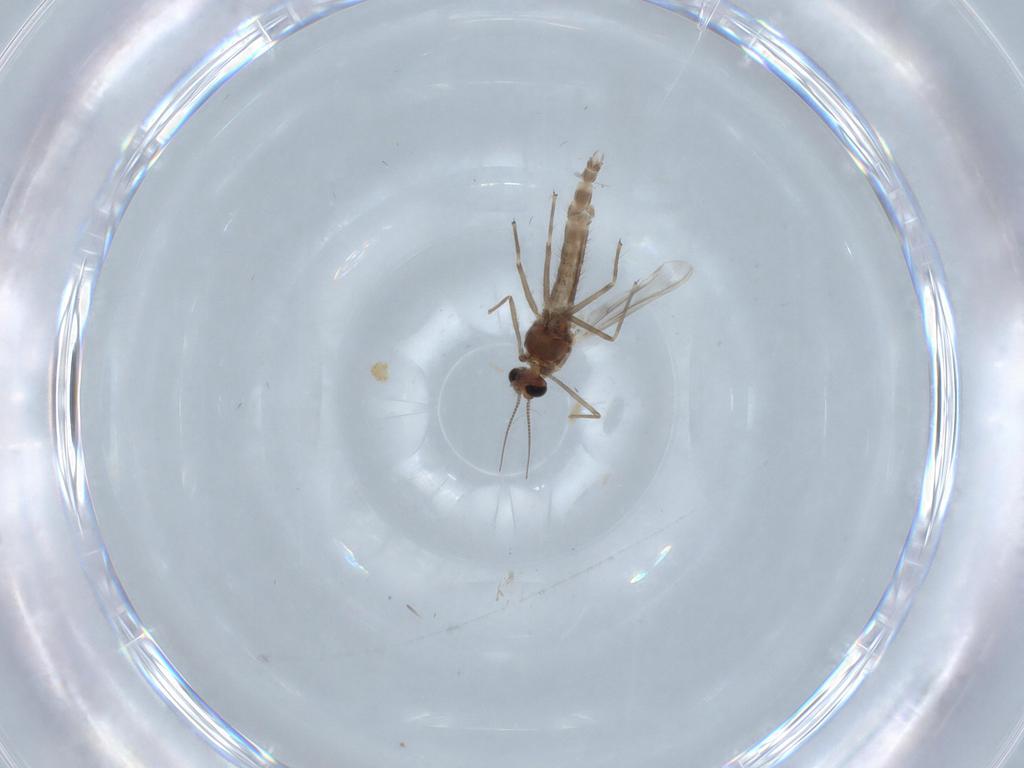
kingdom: Animalia
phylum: Arthropoda
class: Insecta
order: Diptera
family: Chironomidae
